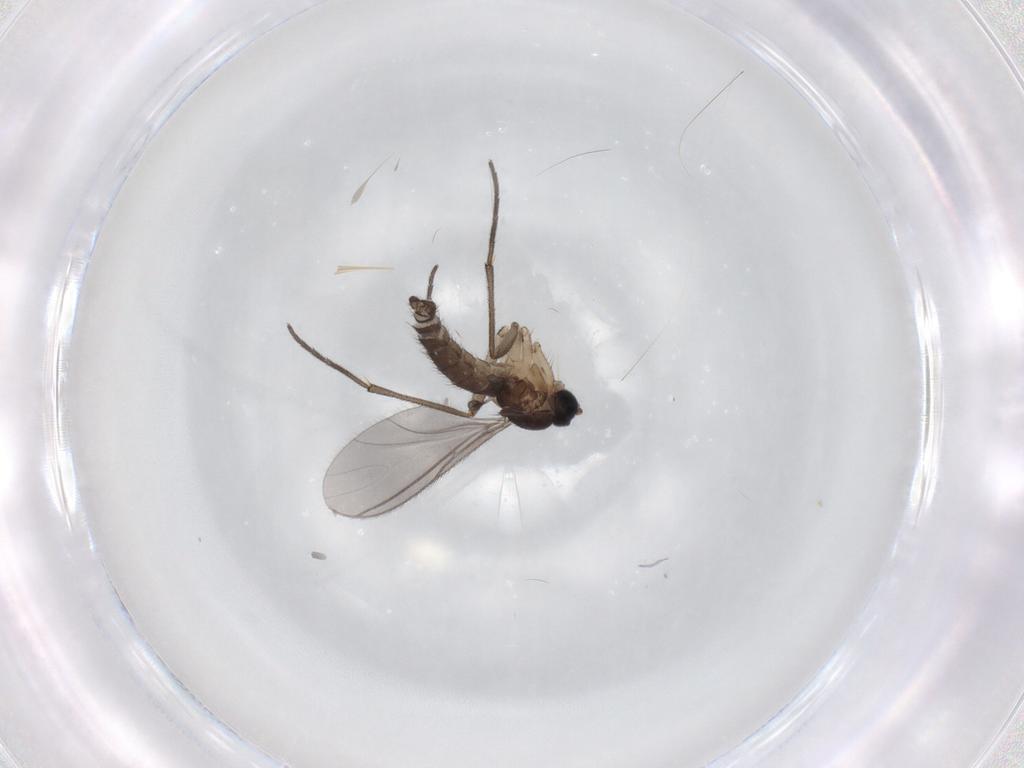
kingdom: Animalia
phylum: Arthropoda
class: Insecta
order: Diptera
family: Sciaridae
